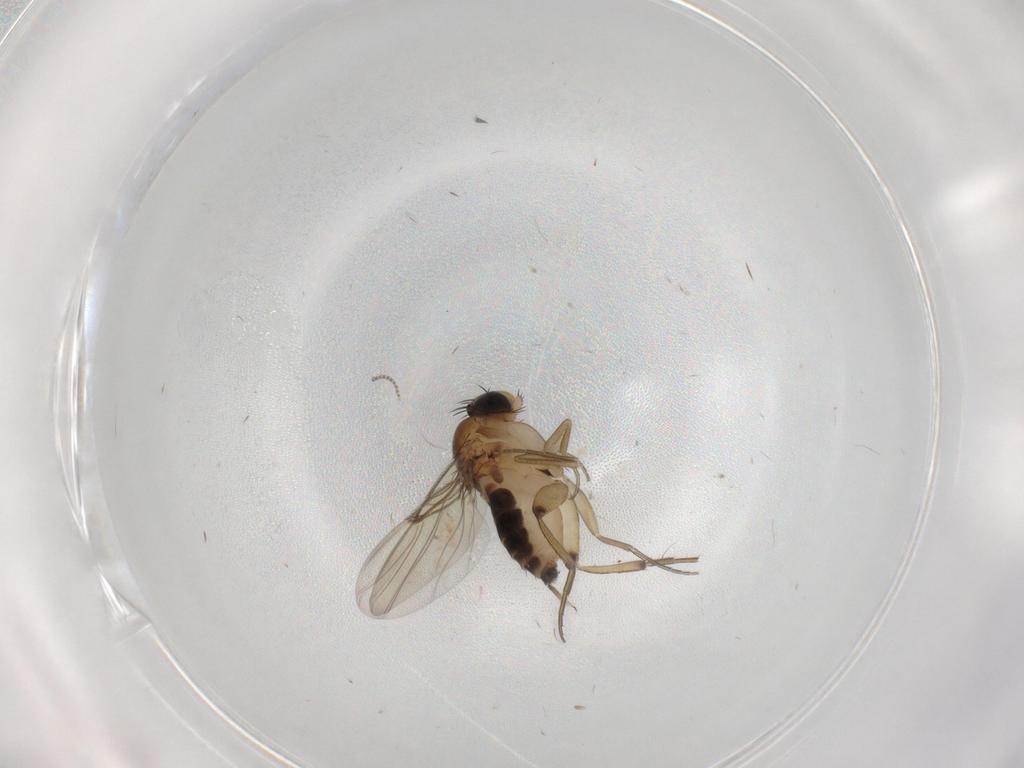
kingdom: Animalia
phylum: Arthropoda
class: Insecta
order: Diptera
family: Cecidomyiidae
